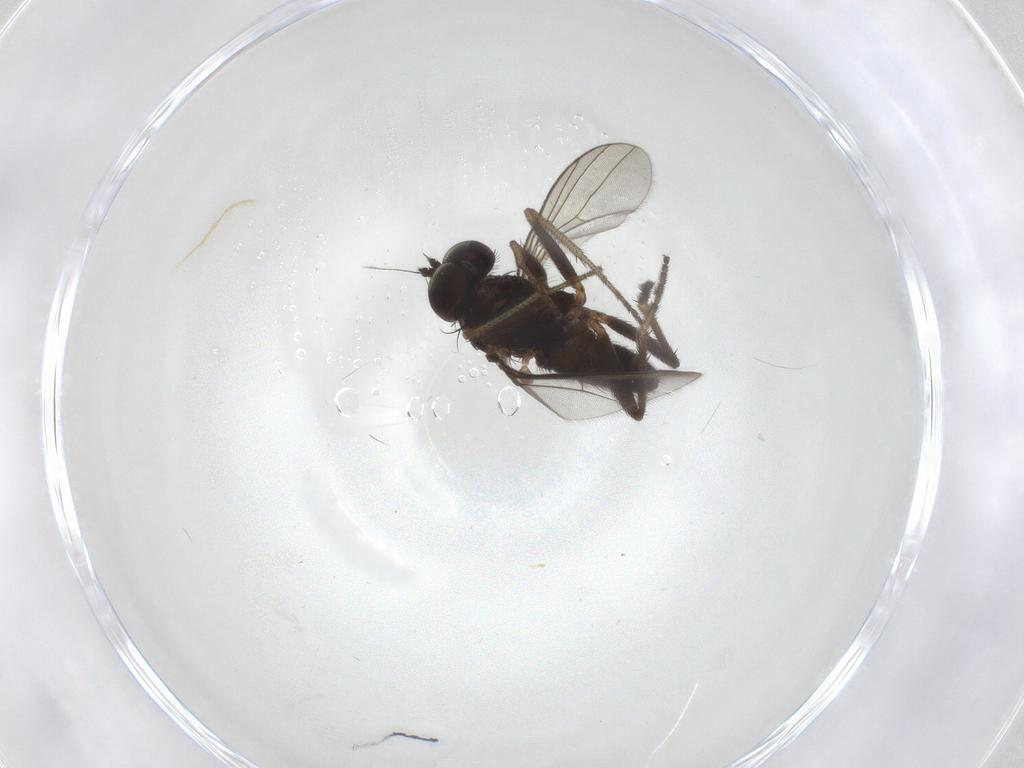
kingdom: Animalia
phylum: Arthropoda
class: Insecta
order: Diptera
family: Dolichopodidae
